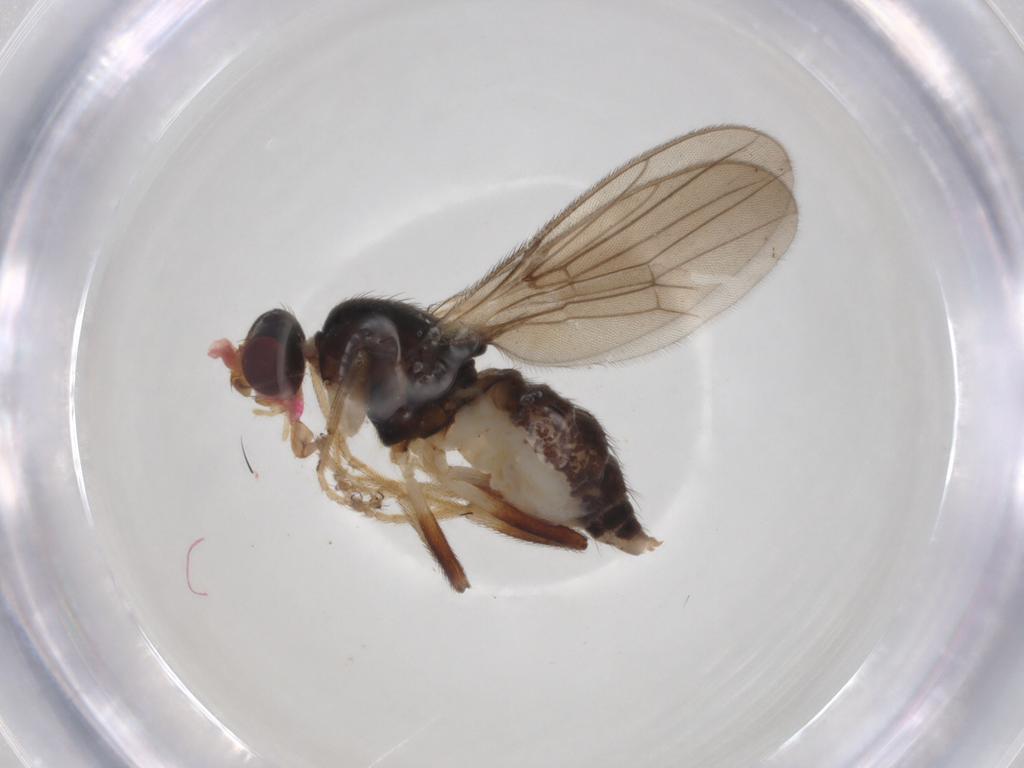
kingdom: Animalia
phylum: Arthropoda
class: Insecta
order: Diptera
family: Chloropidae
